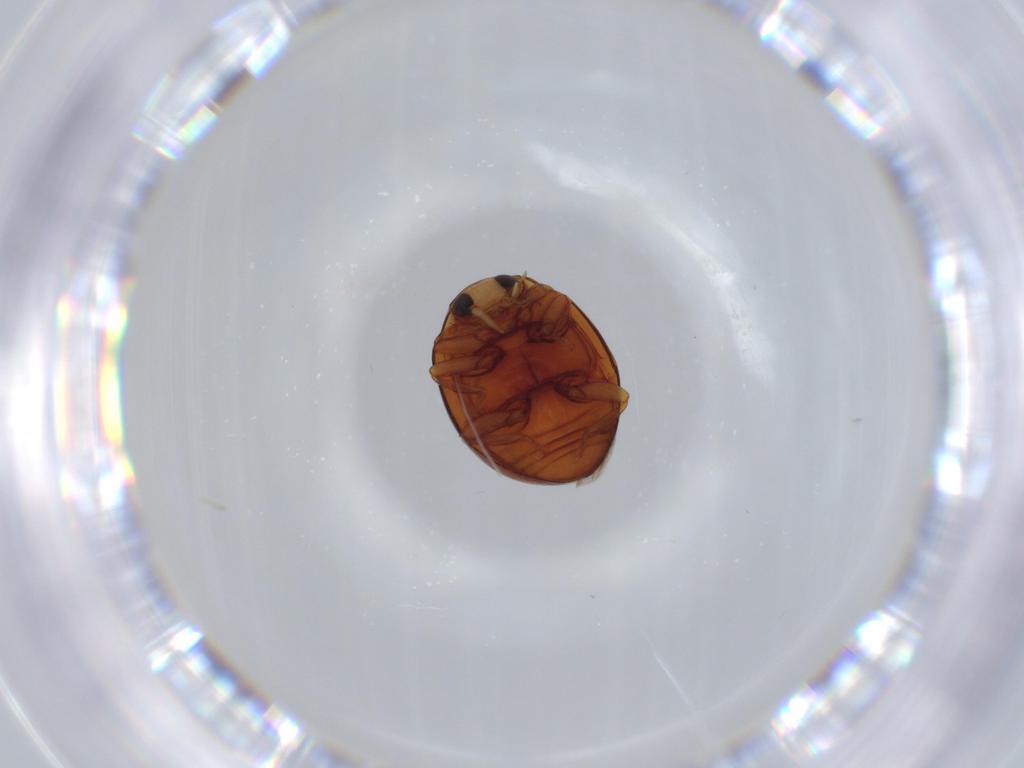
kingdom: Animalia
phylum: Arthropoda
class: Insecta
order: Coleoptera
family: Coccinellidae
